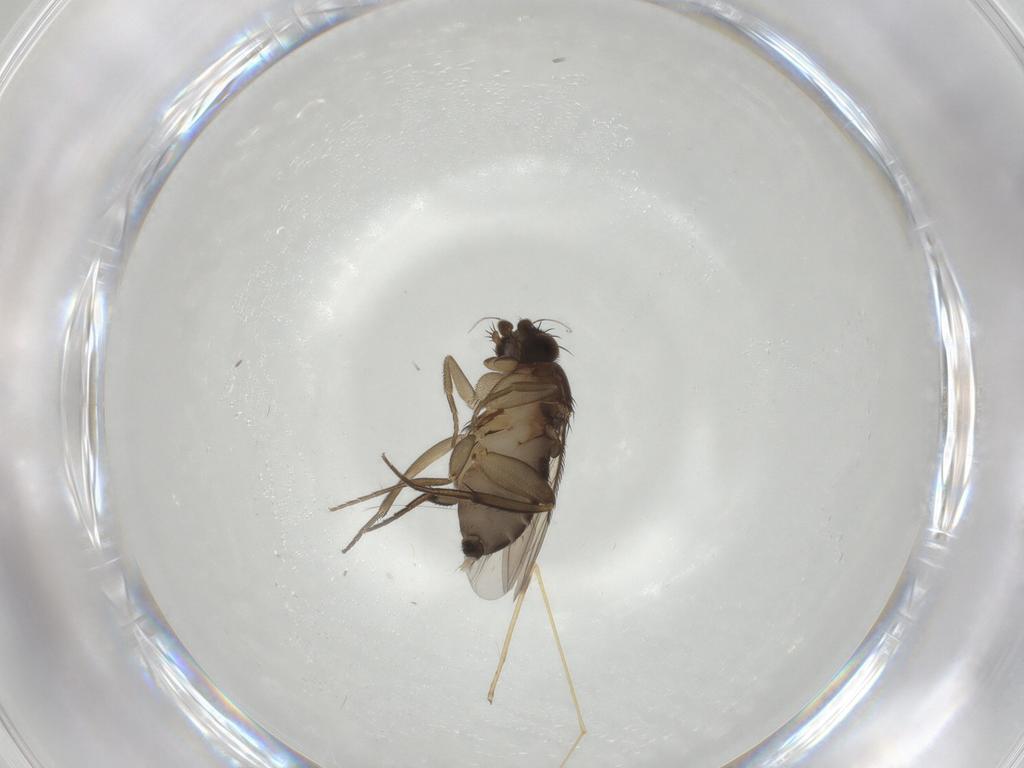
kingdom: Animalia
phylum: Arthropoda
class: Insecta
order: Diptera
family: Phoridae
